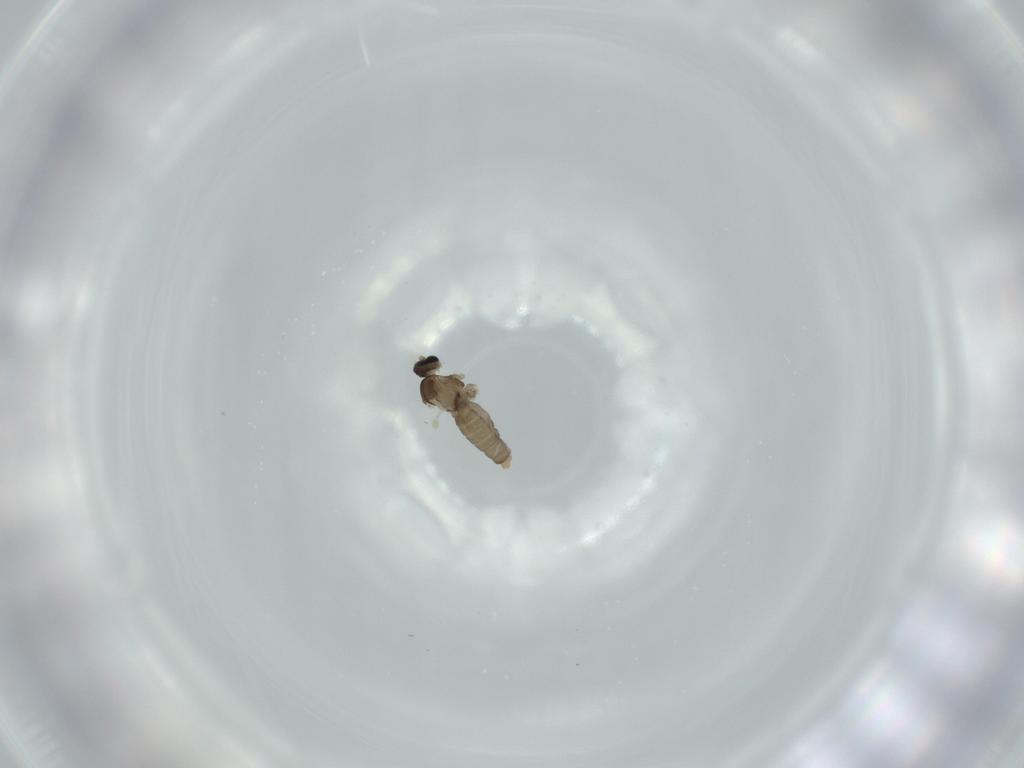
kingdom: Animalia
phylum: Arthropoda
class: Insecta
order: Diptera
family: Cecidomyiidae
